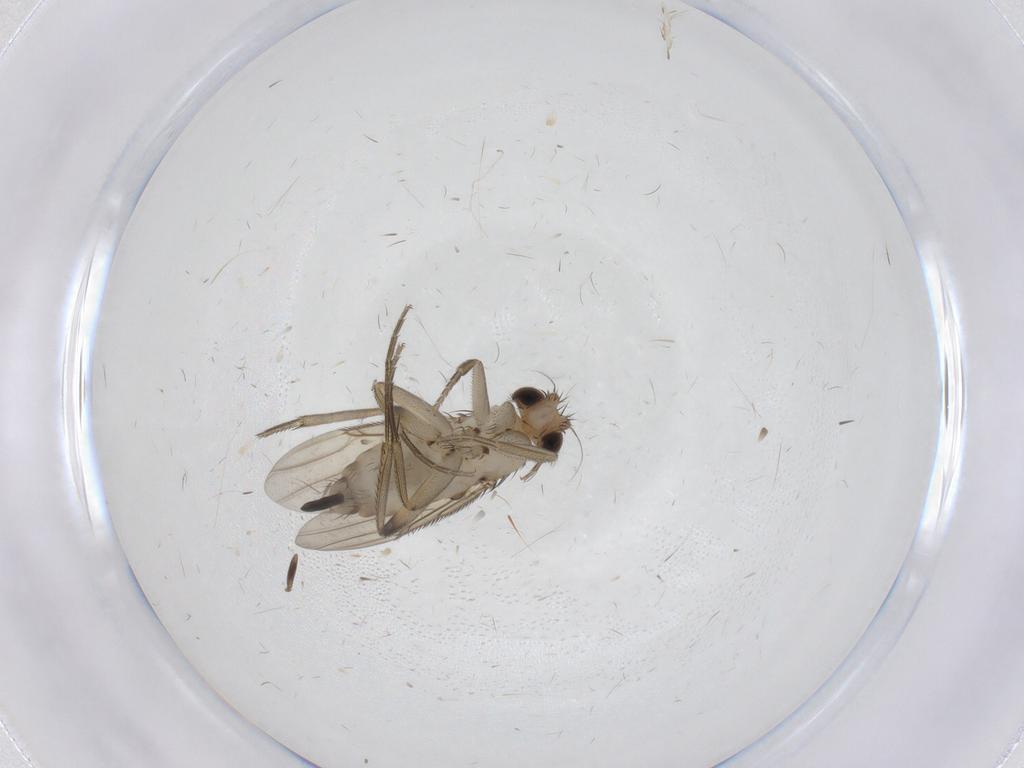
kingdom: Animalia
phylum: Arthropoda
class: Insecta
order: Diptera
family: Phoridae
